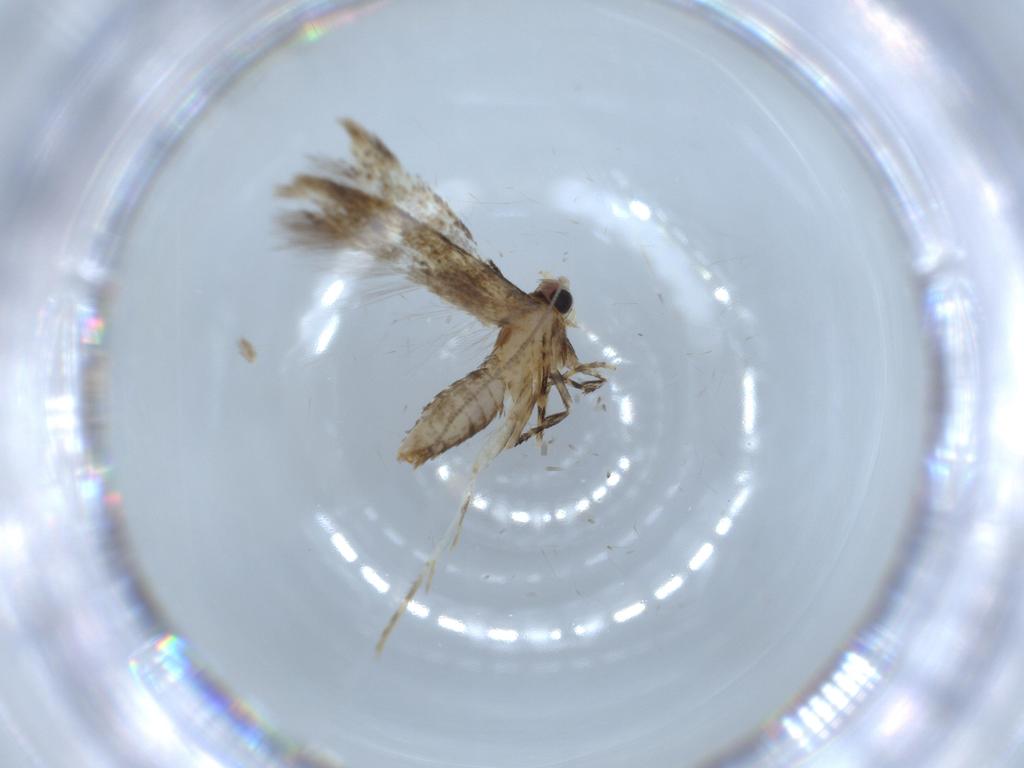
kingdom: Animalia
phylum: Arthropoda
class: Insecta
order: Lepidoptera
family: Tineidae
